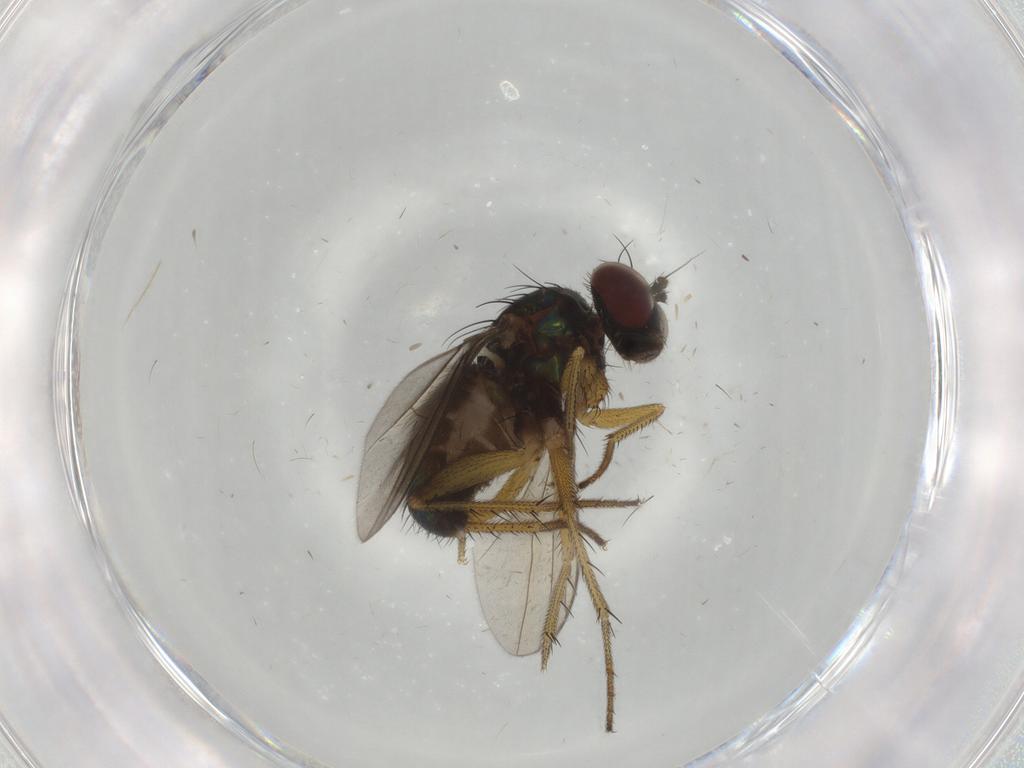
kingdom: Animalia
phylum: Arthropoda
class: Insecta
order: Diptera
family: Dolichopodidae
